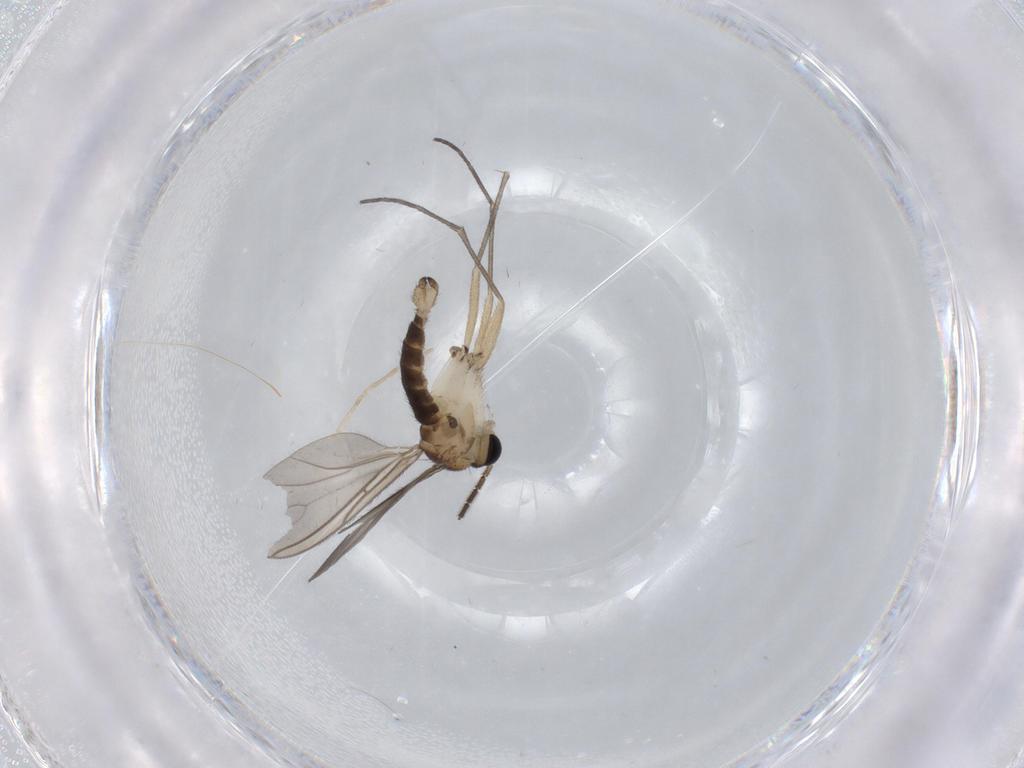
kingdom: Animalia
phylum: Arthropoda
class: Insecta
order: Diptera
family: Sciaridae
